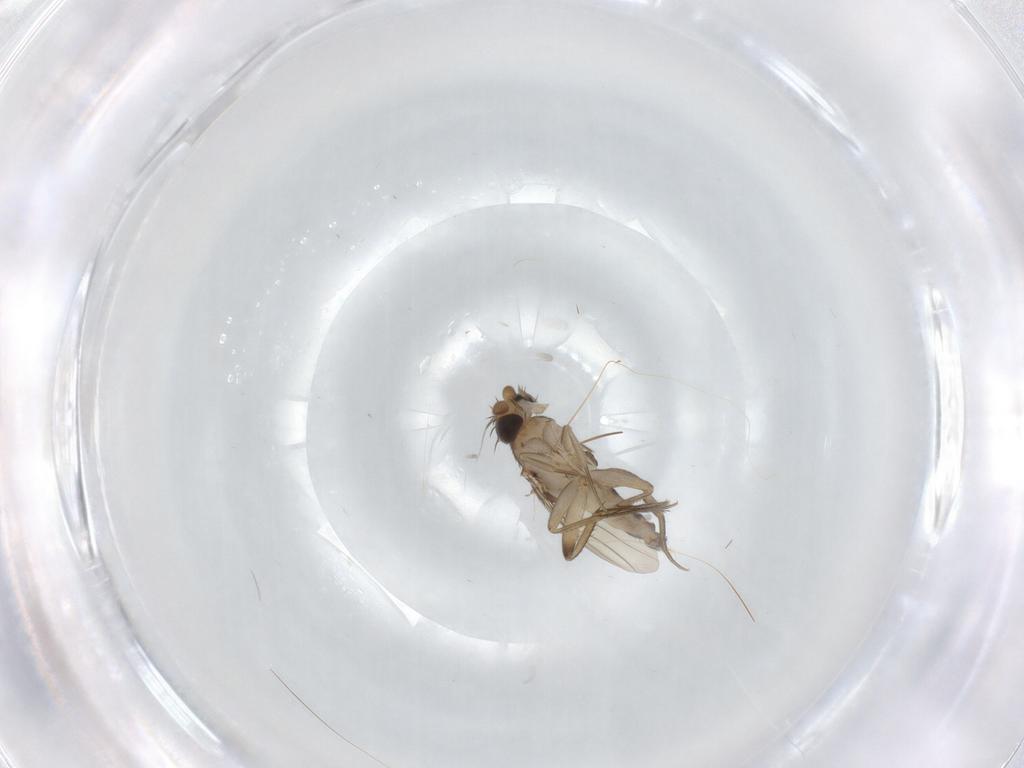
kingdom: Animalia
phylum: Arthropoda
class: Insecta
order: Diptera
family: Phoridae
